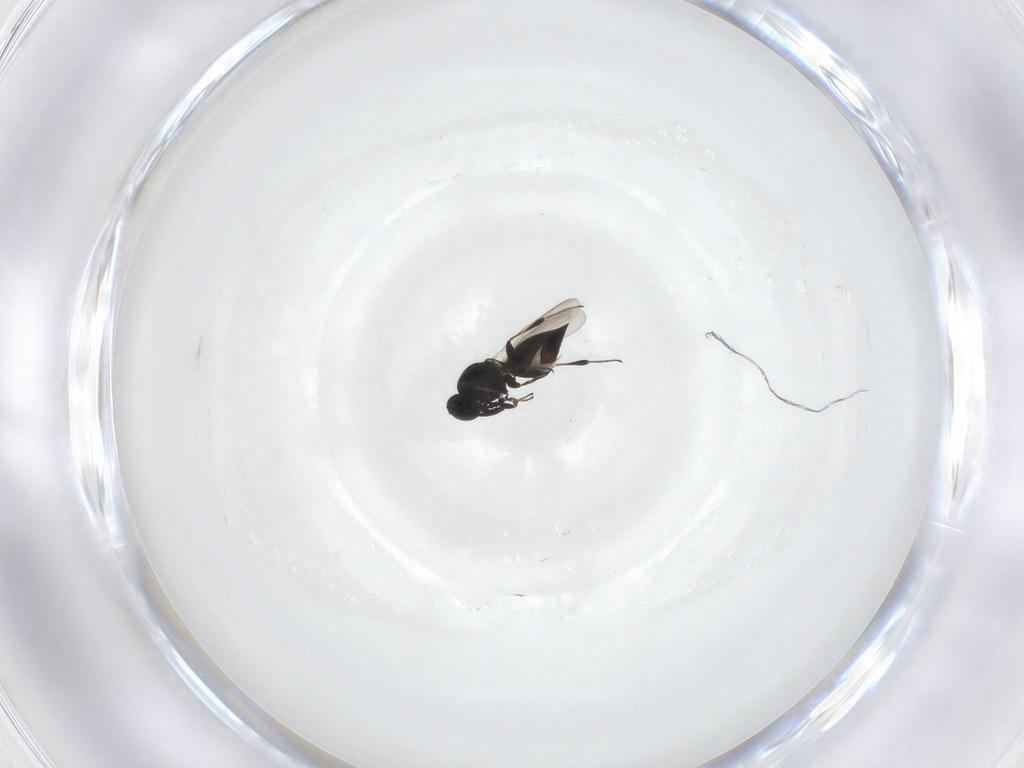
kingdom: Animalia
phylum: Arthropoda
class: Insecta
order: Hymenoptera
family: Platygastridae
